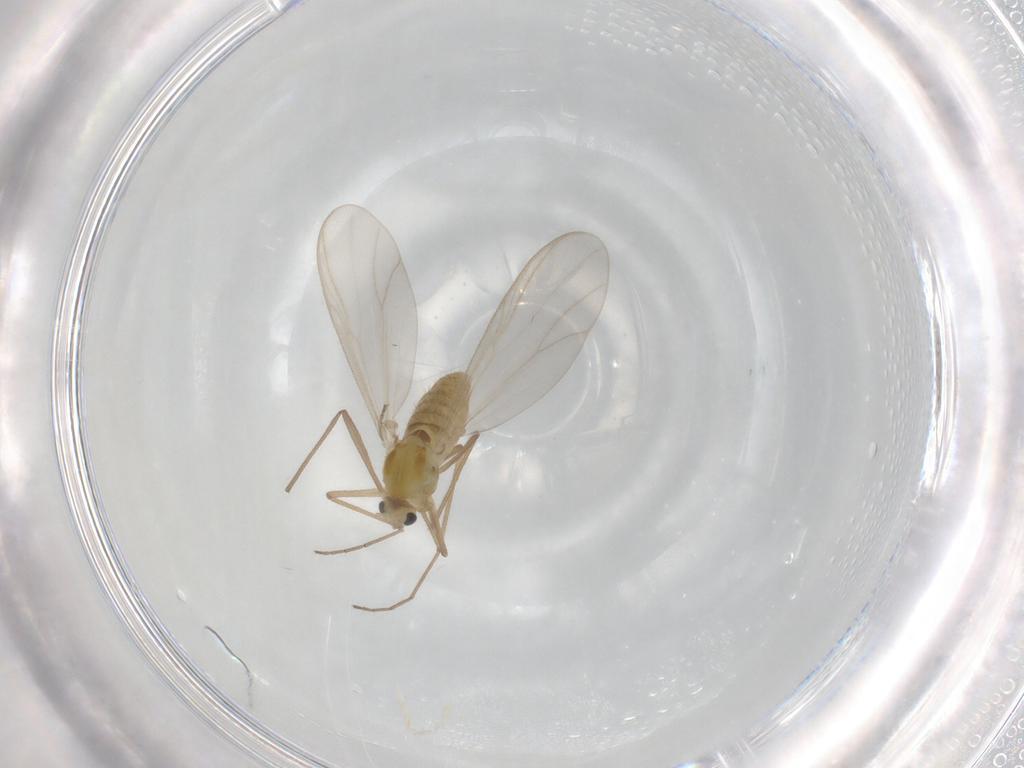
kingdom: Animalia
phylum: Arthropoda
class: Insecta
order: Diptera
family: Chironomidae
